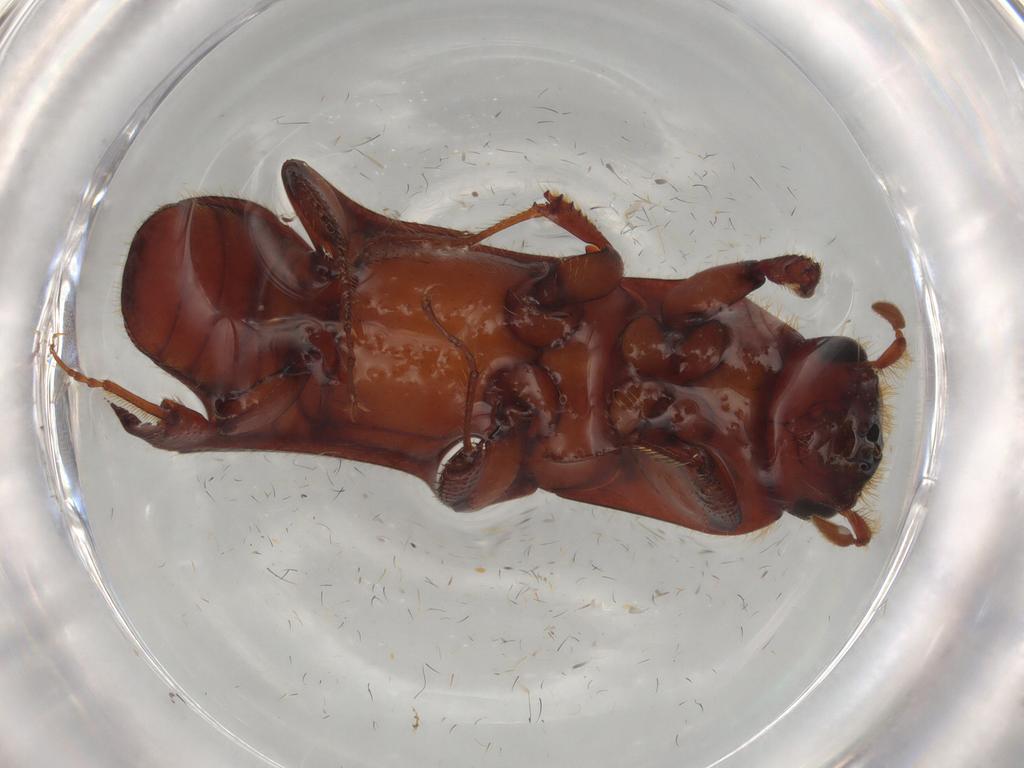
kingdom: Animalia
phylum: Arthropoda
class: Insecta
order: Coleoptera
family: Curculionidae
